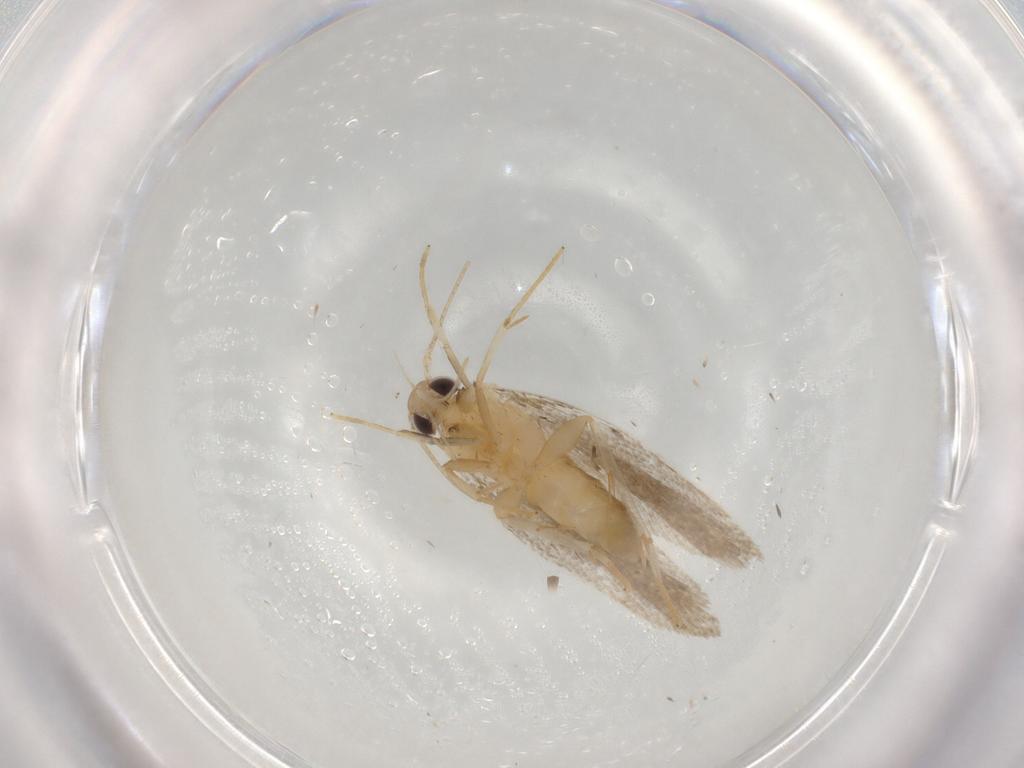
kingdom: Animalia
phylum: Arthropoda
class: Insecta
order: Lepidoptera
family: Autostichidae
